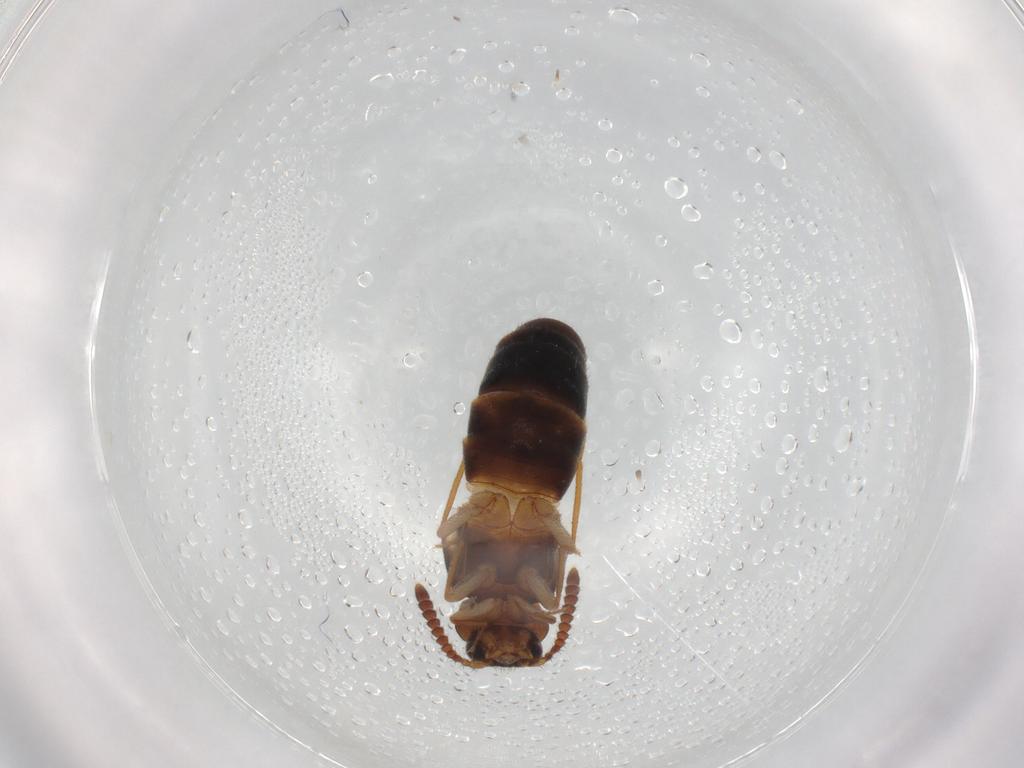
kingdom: Animalia
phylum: Arthropoda
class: Insecta
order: Coleoptera
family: Staphylinidae
